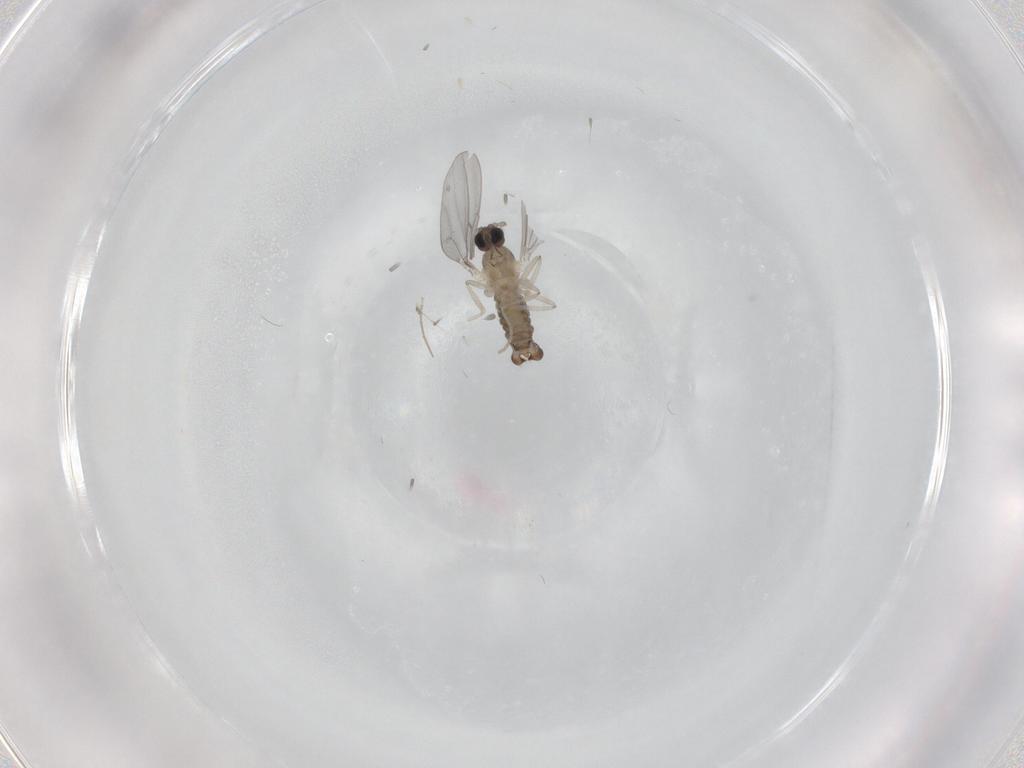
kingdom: Animalia
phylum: Arthropoda
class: Insecta
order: Diptera
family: Cecidomyiidae
